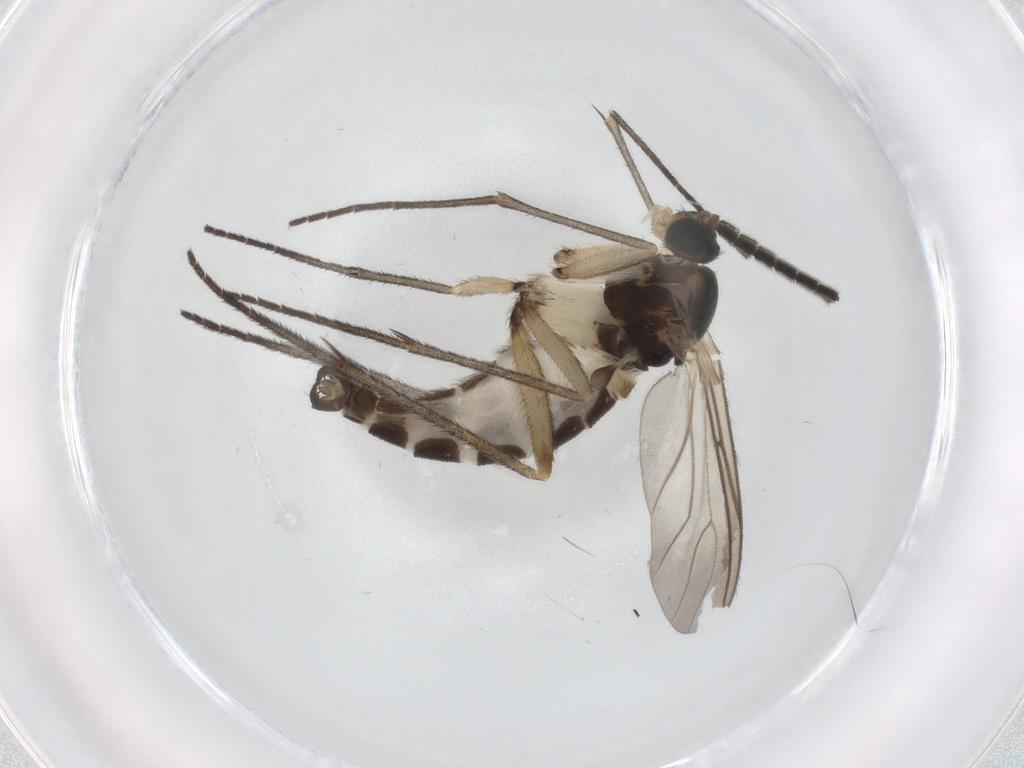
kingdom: Animalia
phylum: Arthropoda
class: Insecta
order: Diptera
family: Sciaridae
